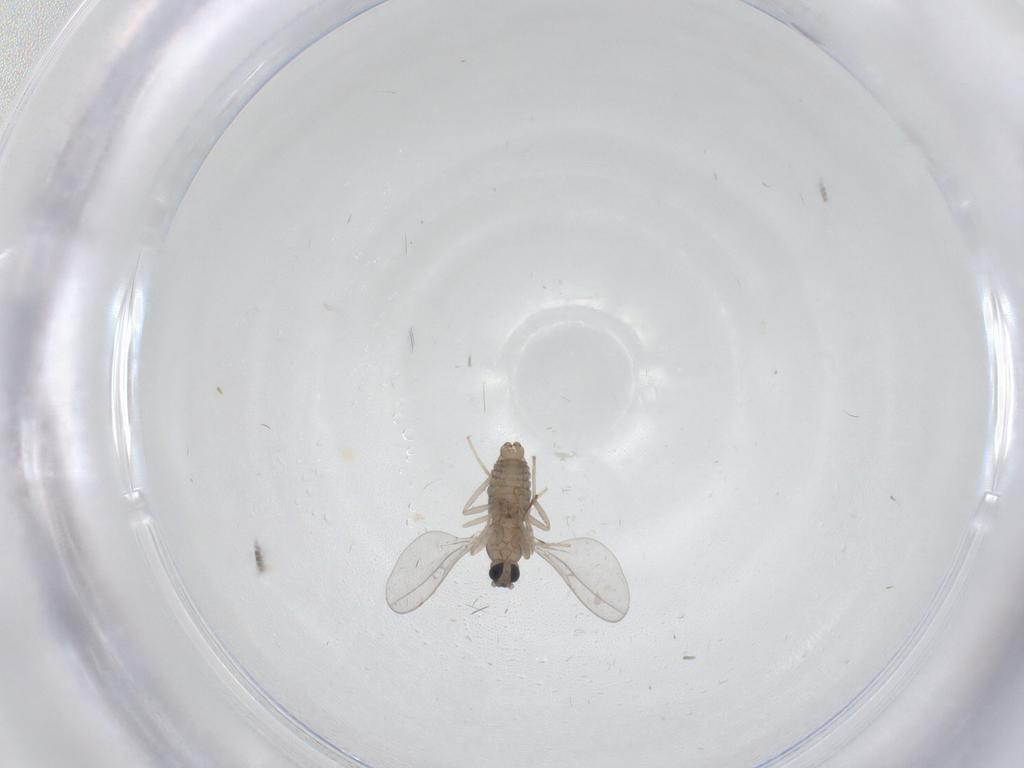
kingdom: Animalia
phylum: Arthropoda
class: Insecta
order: Diptera
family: Cecidomyiidae
